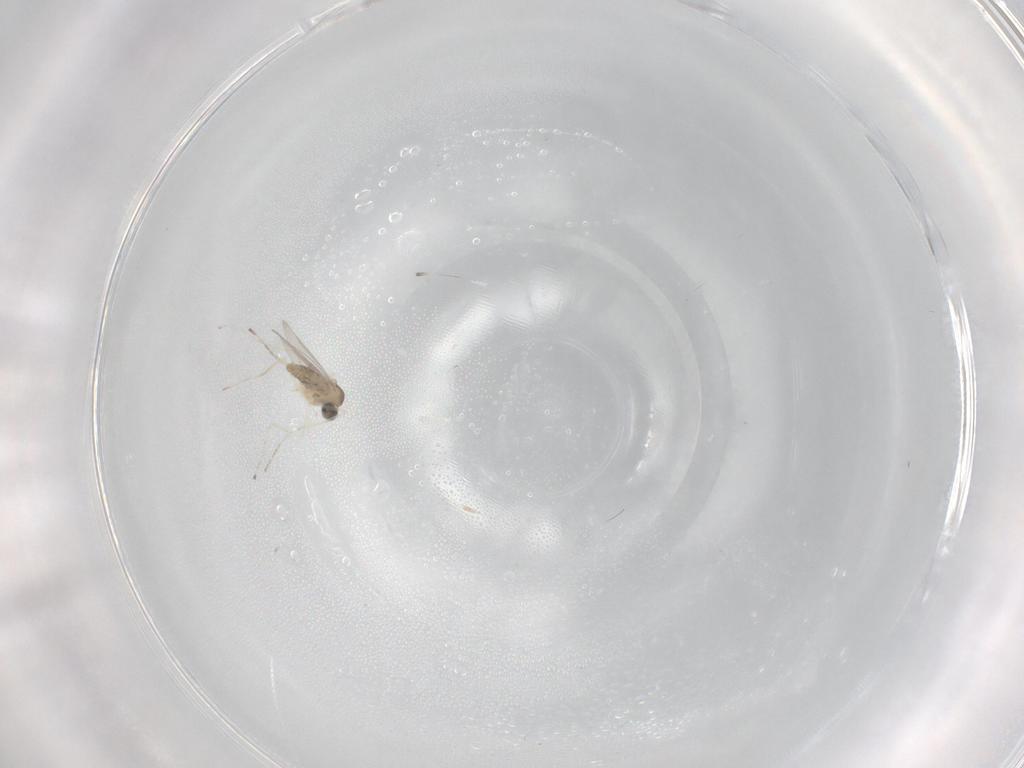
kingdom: Animalia
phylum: Arthropoda
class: Insecta
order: Diptera
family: Cecidomyiidae
